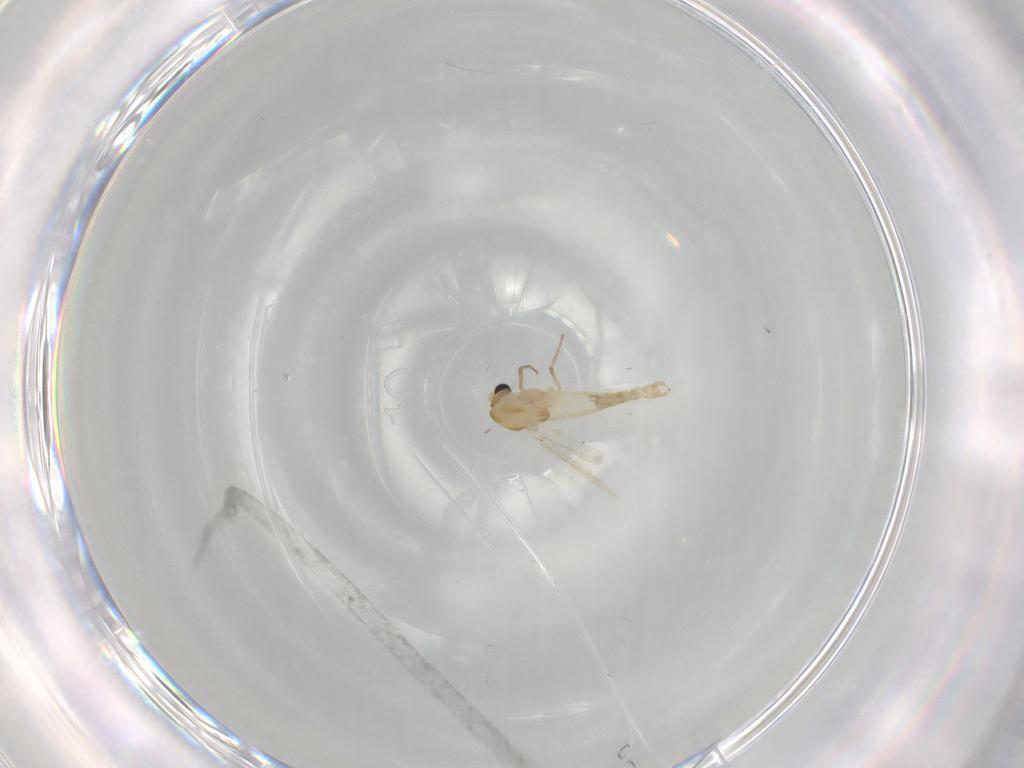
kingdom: Animalia
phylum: Arthropoda
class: Insecta
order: Diptera
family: Chironomidae
